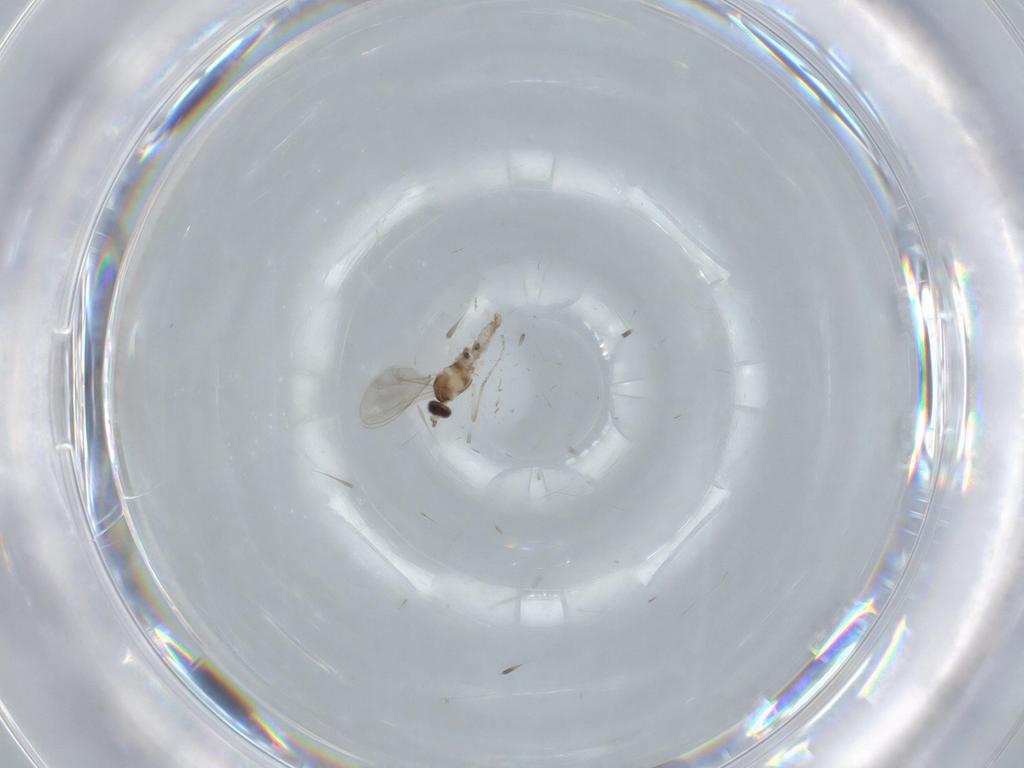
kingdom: Animalia
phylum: Arthropoda
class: Insecta
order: Diptera
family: Cecidomyiidae
